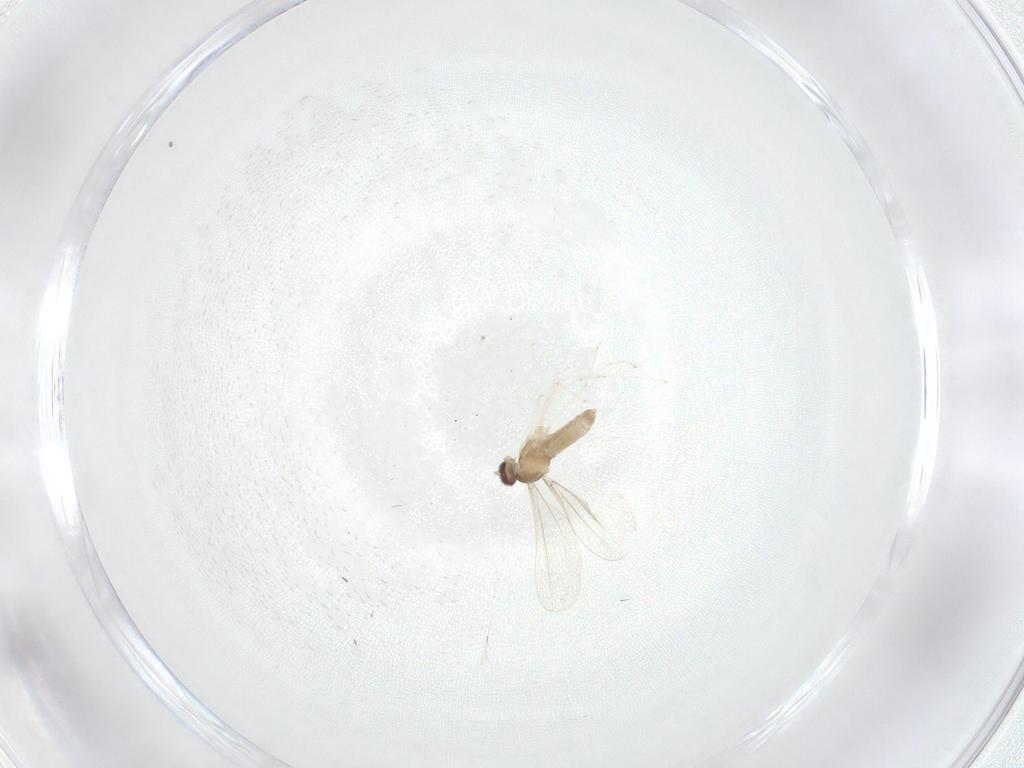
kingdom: Animalia
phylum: Arthropoda
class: Insecta
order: Diptera
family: Cecidomyiidae
